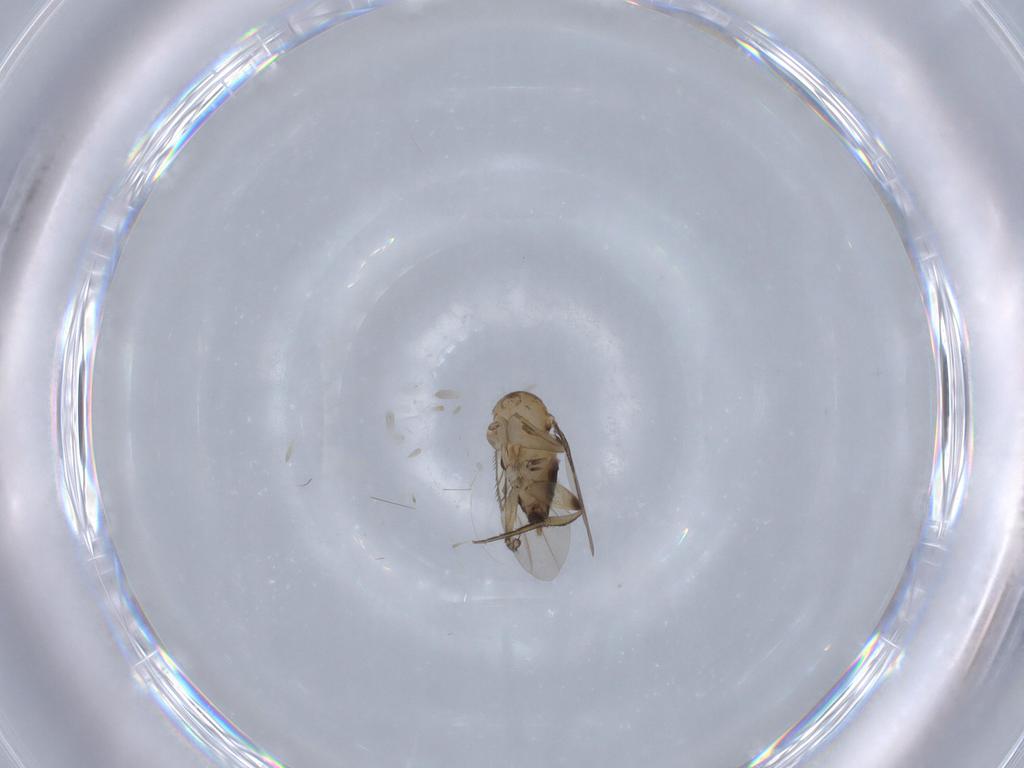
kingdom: Animalia
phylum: Arthropoda
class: Insecta
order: Diptera
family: Phoridae
